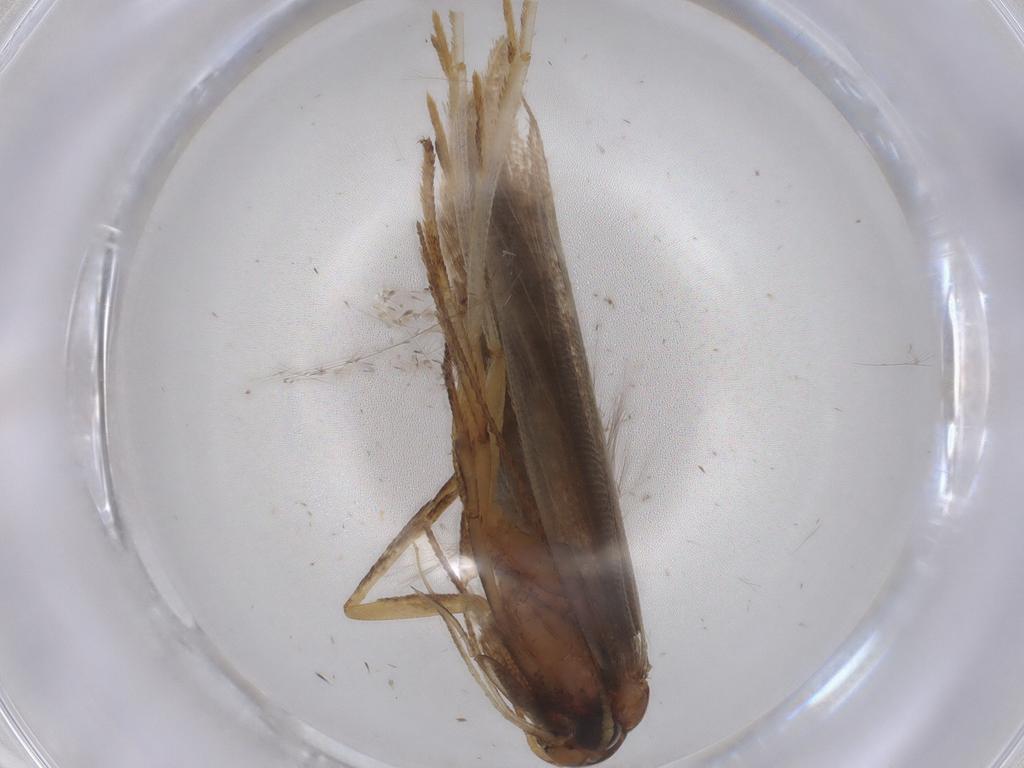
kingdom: Animalia
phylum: Arthropoda
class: Insecta
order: Lepidoptera
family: Gelechiidae
